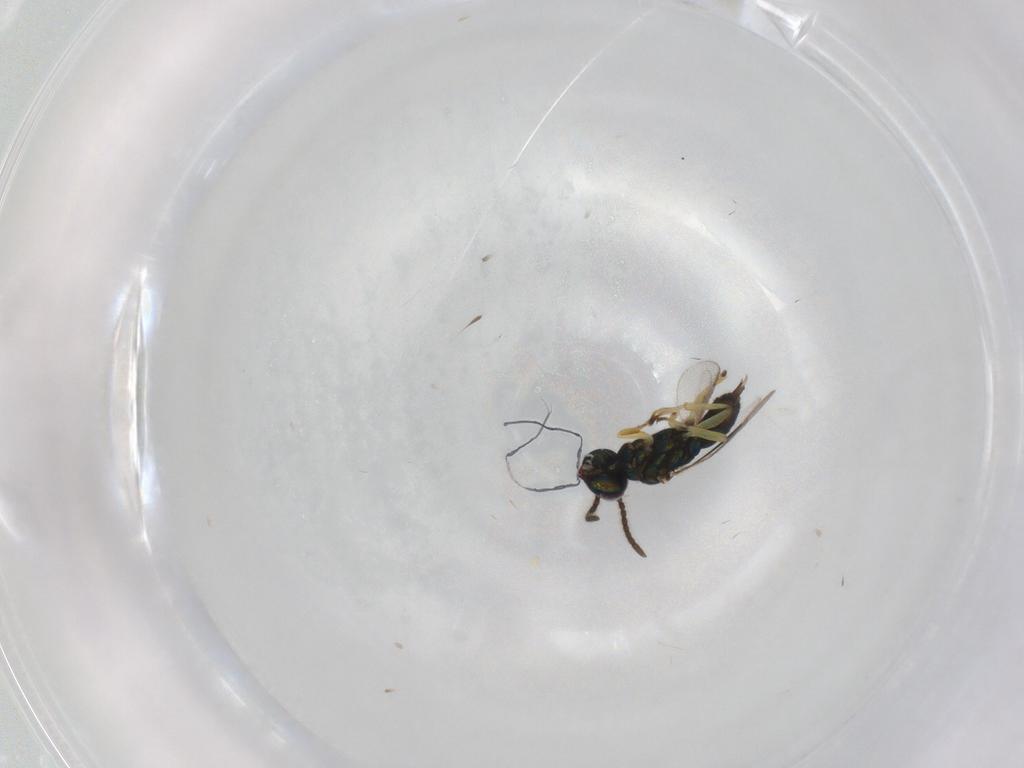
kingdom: Animalia
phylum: Arthropoda
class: Insecta
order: Hymenoptera
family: Eupelmidae
